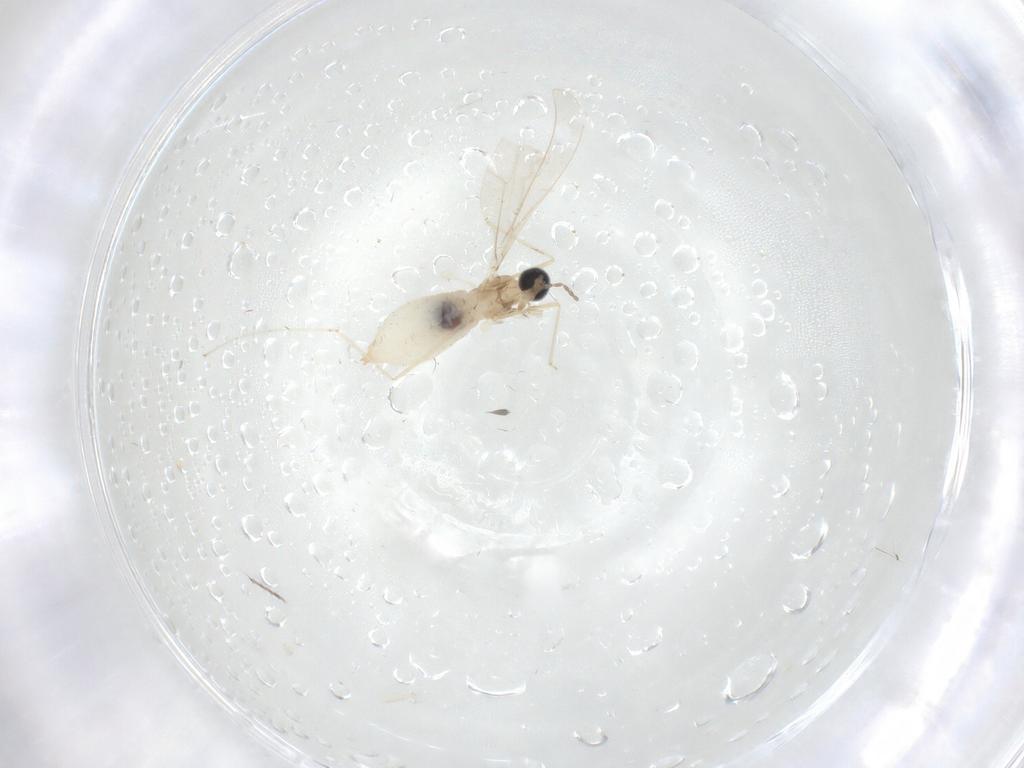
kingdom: Animalia
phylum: Arthropoda
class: Insecta
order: Diptera
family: Cecidomyiidae
